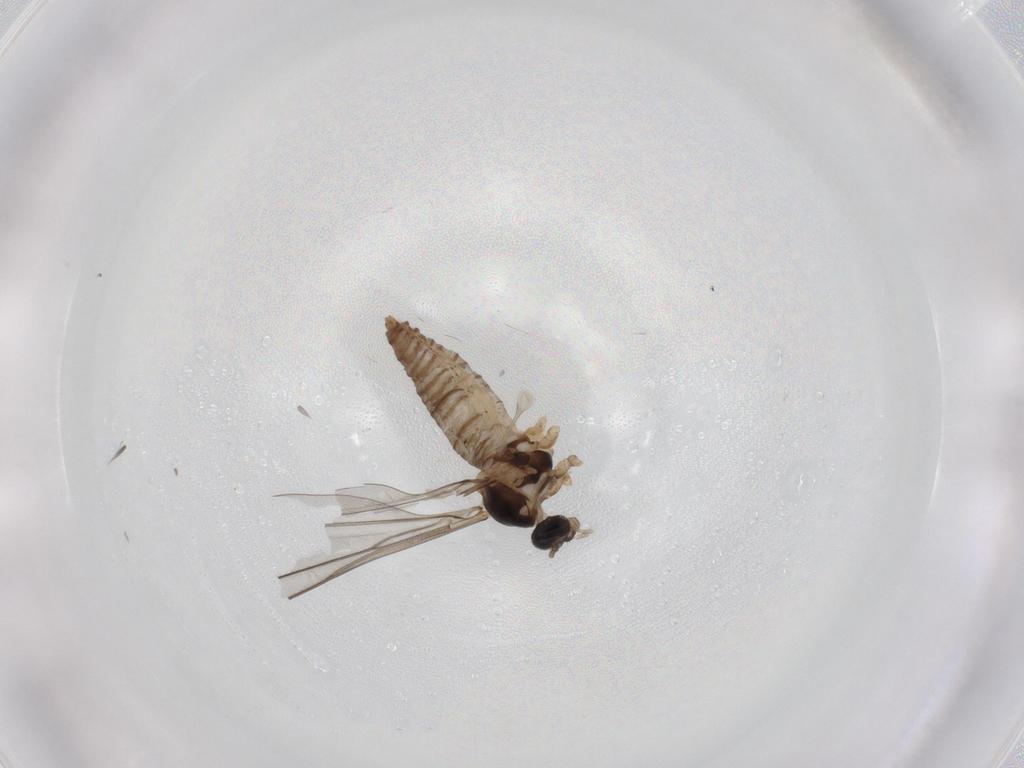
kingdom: Animalia
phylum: Arthropoda
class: Insecta
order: Diptera
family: Cecidomyiidae
